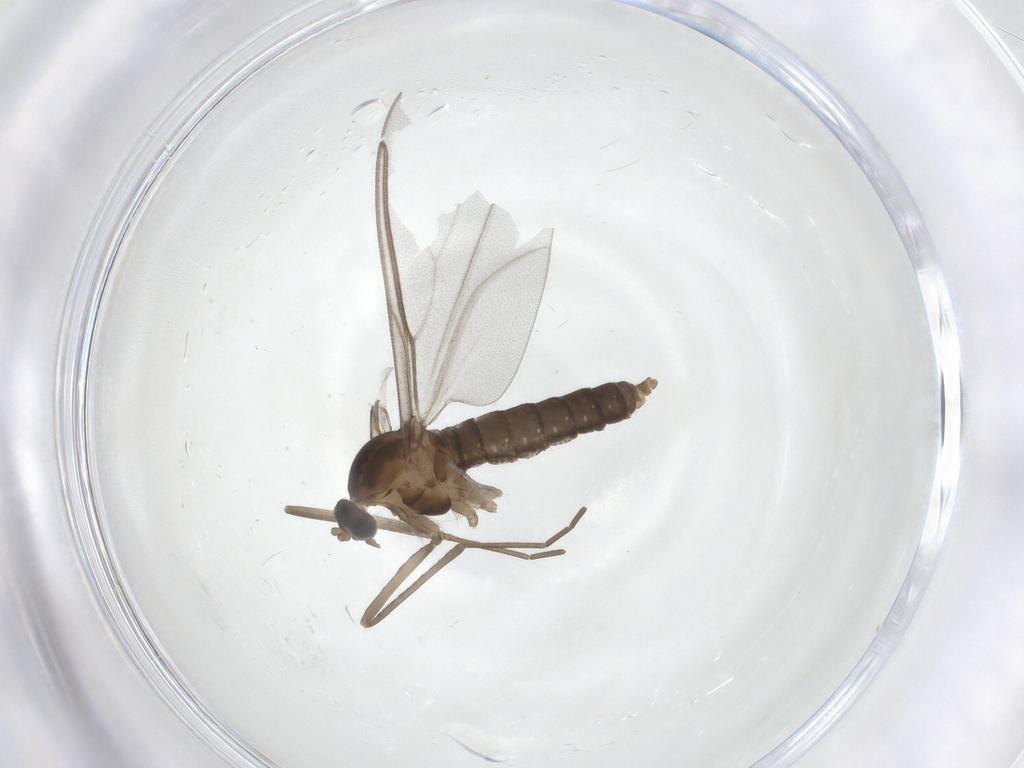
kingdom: Animalia
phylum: Arthropoda
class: Insecta
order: Diptera
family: Cecidomyiidae
